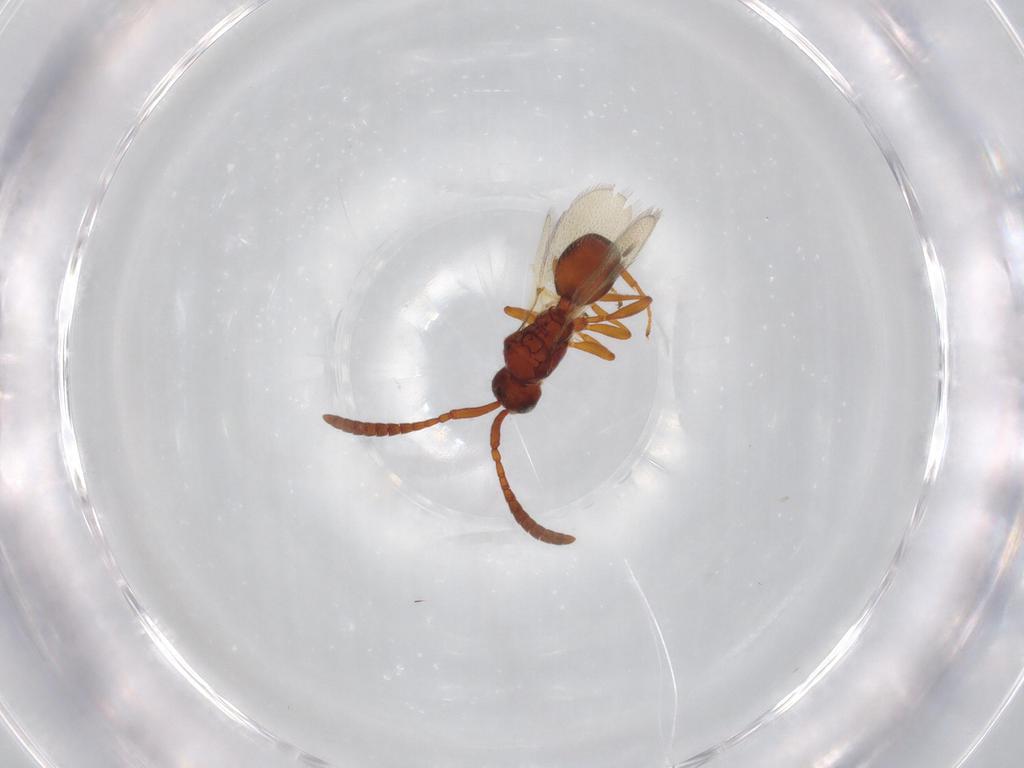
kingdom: Animalia
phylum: Arthropoda
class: Insecta
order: Hymenoptera
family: Diapriidae
